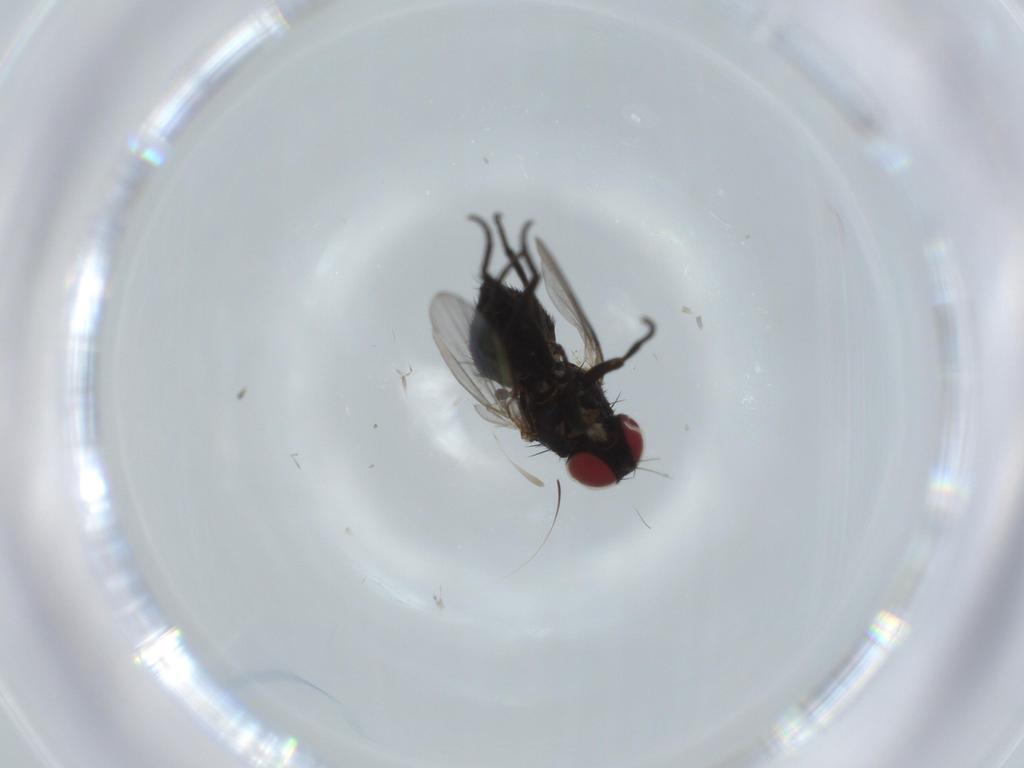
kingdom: Animalia
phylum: Arthropoda
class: Insecta
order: Diptera
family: Agromyzidae
